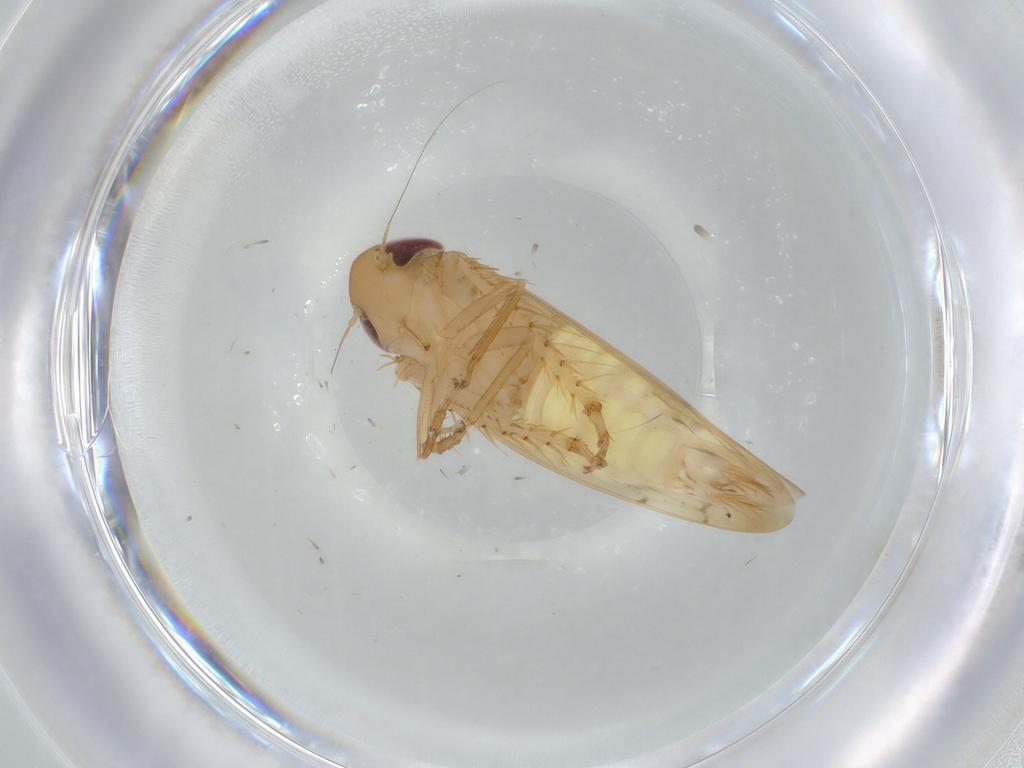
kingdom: Animalia
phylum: Arthropoda
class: Insecta
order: Hemiptera
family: Cicadellidae
